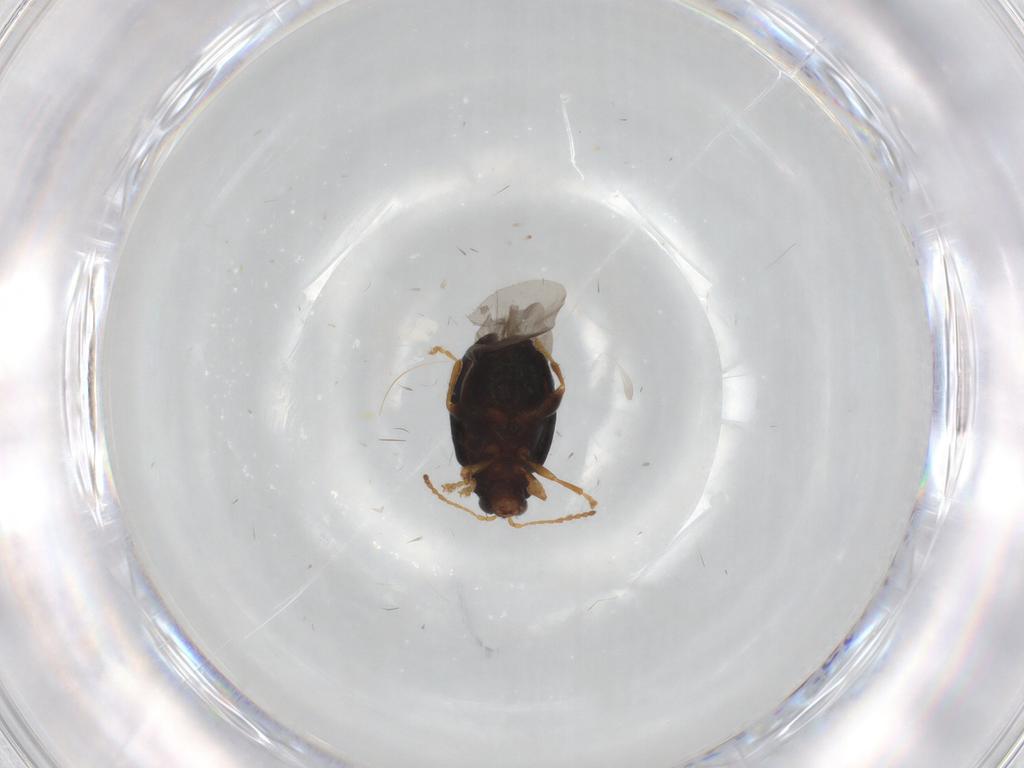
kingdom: Animalia
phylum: Arthropoda
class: Insecta
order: Coleoptera
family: Chrysomelidae
